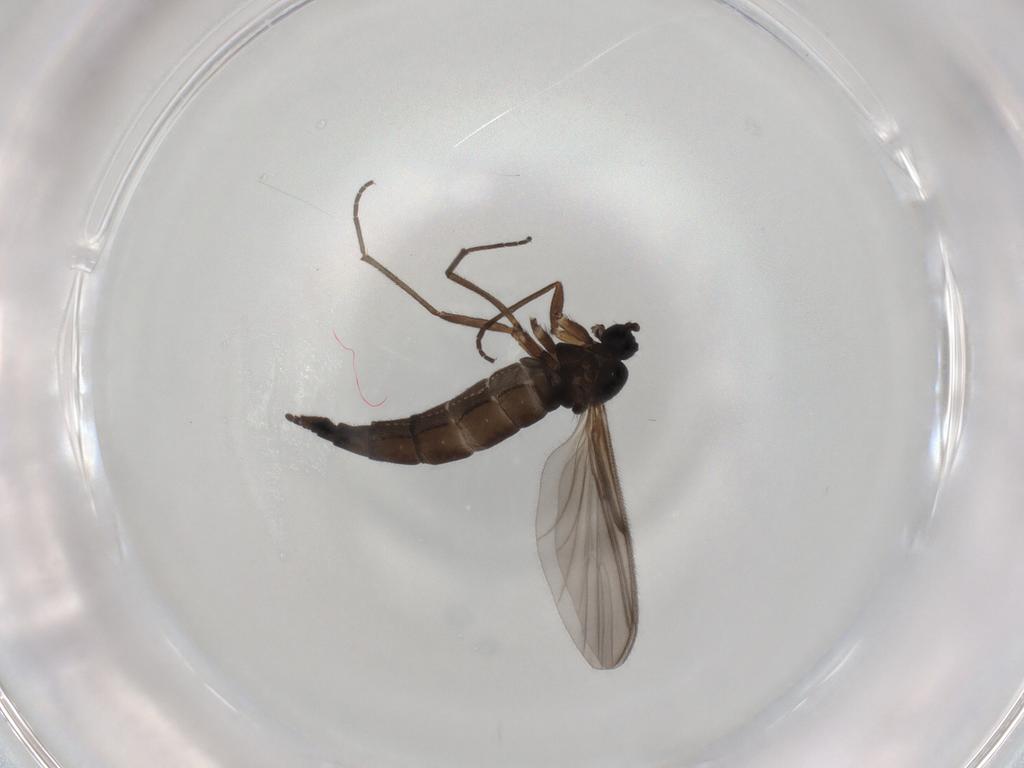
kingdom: Animalia
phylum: Arthropoda
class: Insecta
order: Diptera
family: Sciaridae
